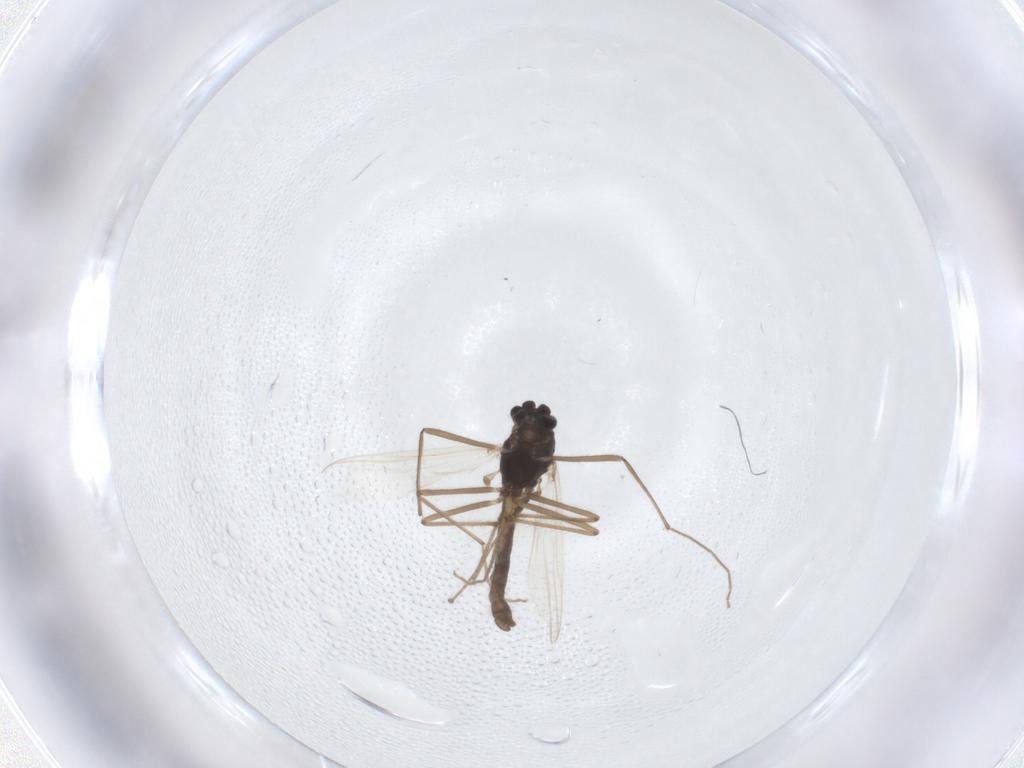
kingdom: Animalia
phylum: Arthropoda
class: Insecta
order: Diptera
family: Chironomidae
